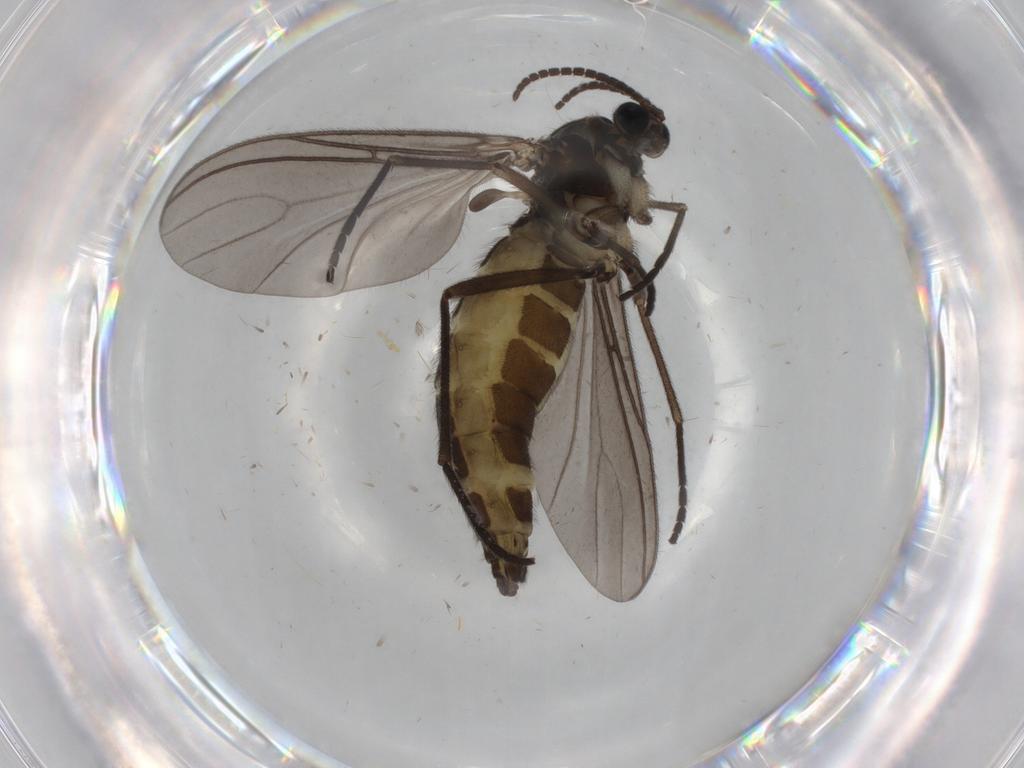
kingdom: Animalia
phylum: Arthropoda
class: Insecta
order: Diptera
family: Sciaridae
